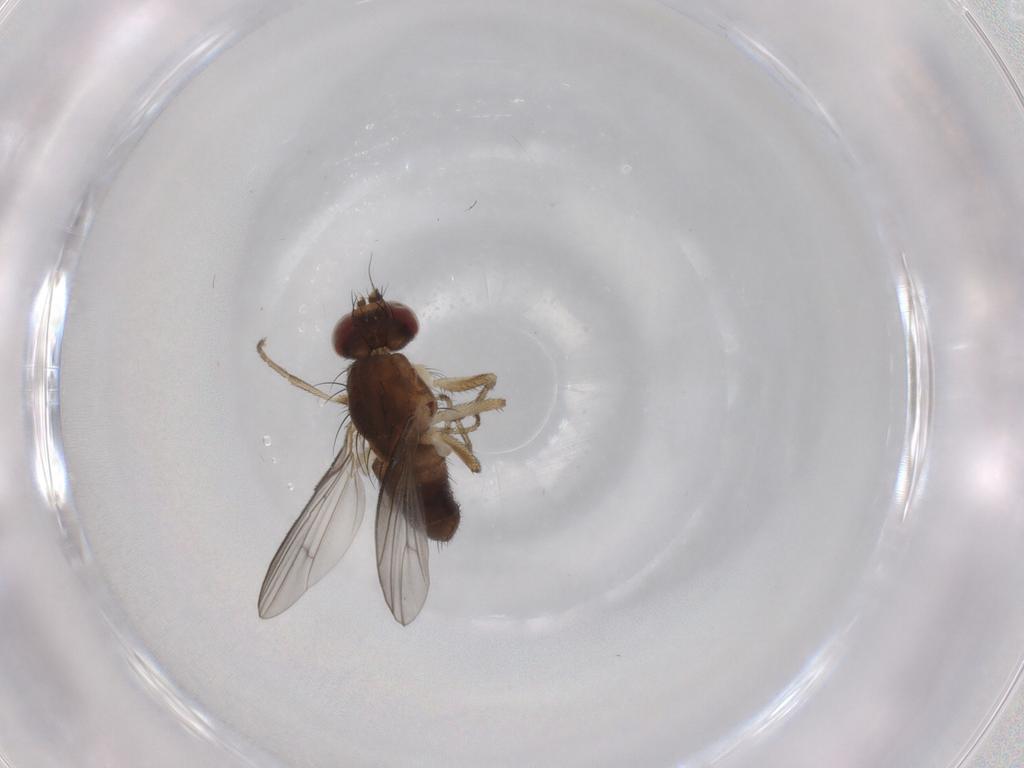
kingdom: Animalia
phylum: Arthropoda
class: Insecta
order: Diptera
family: Heleomyzidae
